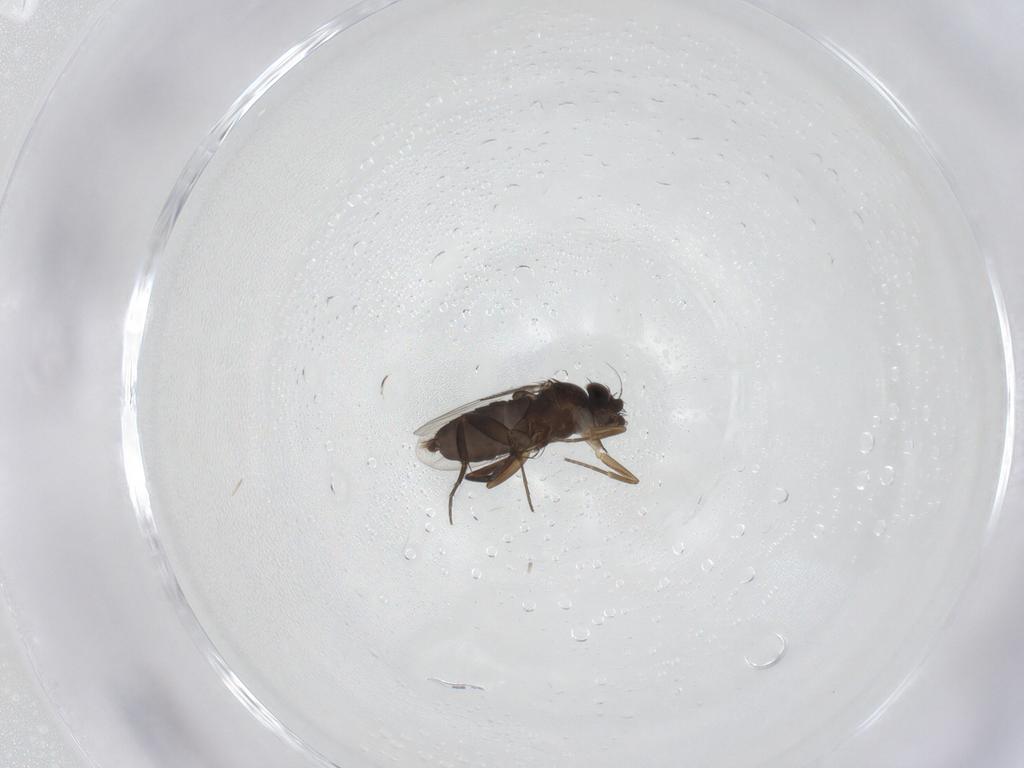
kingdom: Animalia
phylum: Arthropoda
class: Insecta
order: Diptera
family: Phoridae
